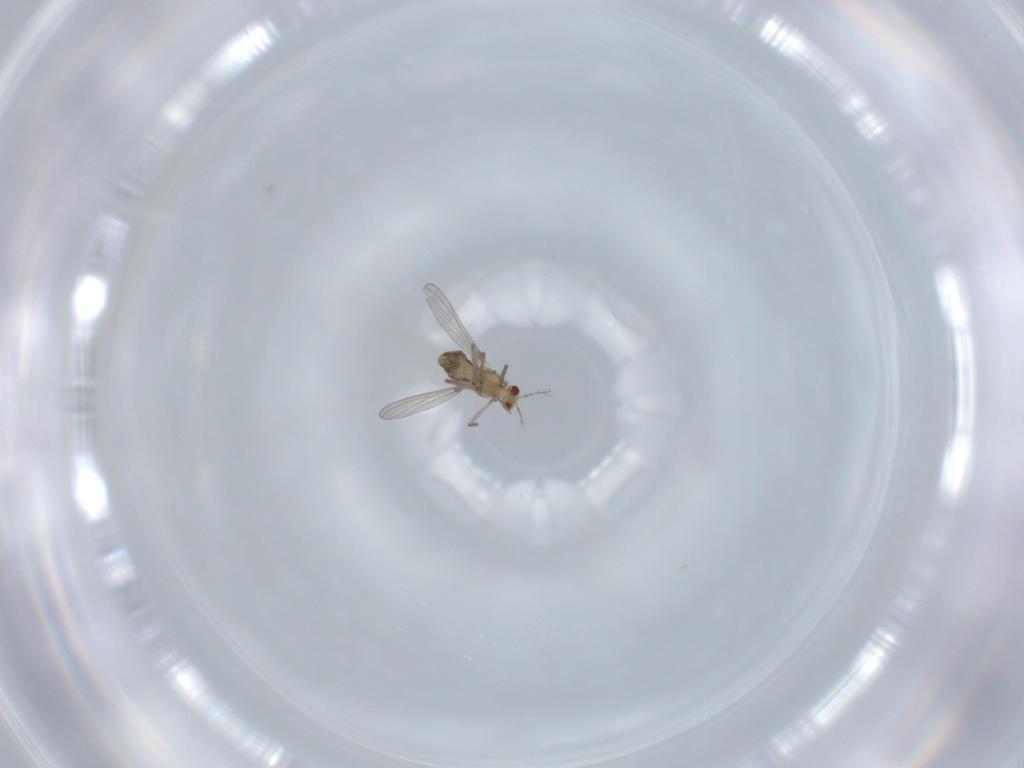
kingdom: Animalia
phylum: Arthropoda
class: Insecta
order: Diptera
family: Chironomidae
